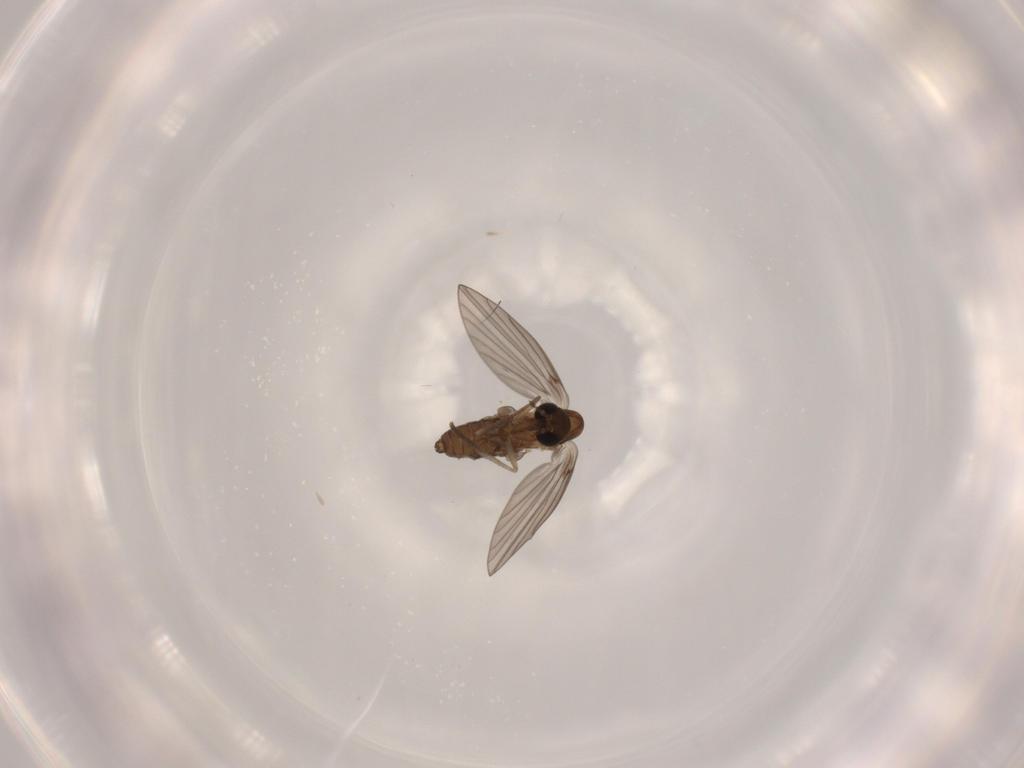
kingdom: Animalia
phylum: Arthropoda
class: Insecta
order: Diptera
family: Psychodidae
